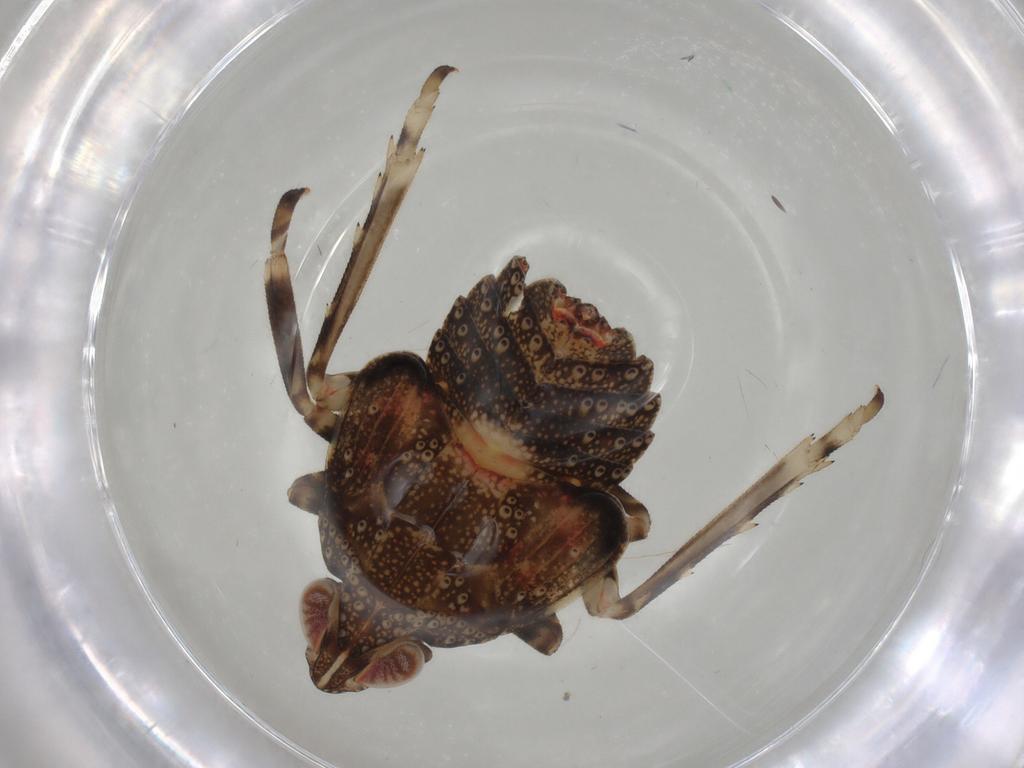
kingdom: Animalia
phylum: Arthropoda
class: Insecta
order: Hemiptera
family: Tropiduchidae
